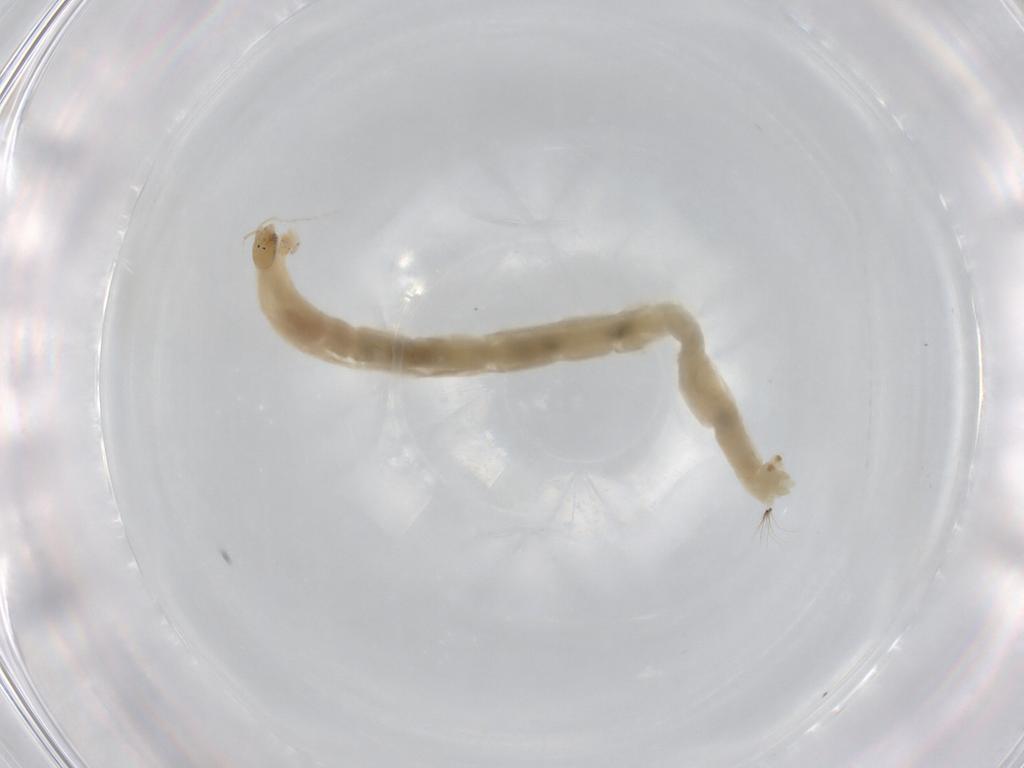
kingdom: Animalia
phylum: Arthropoda
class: Insecta
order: Diptera
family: Chironomidae
